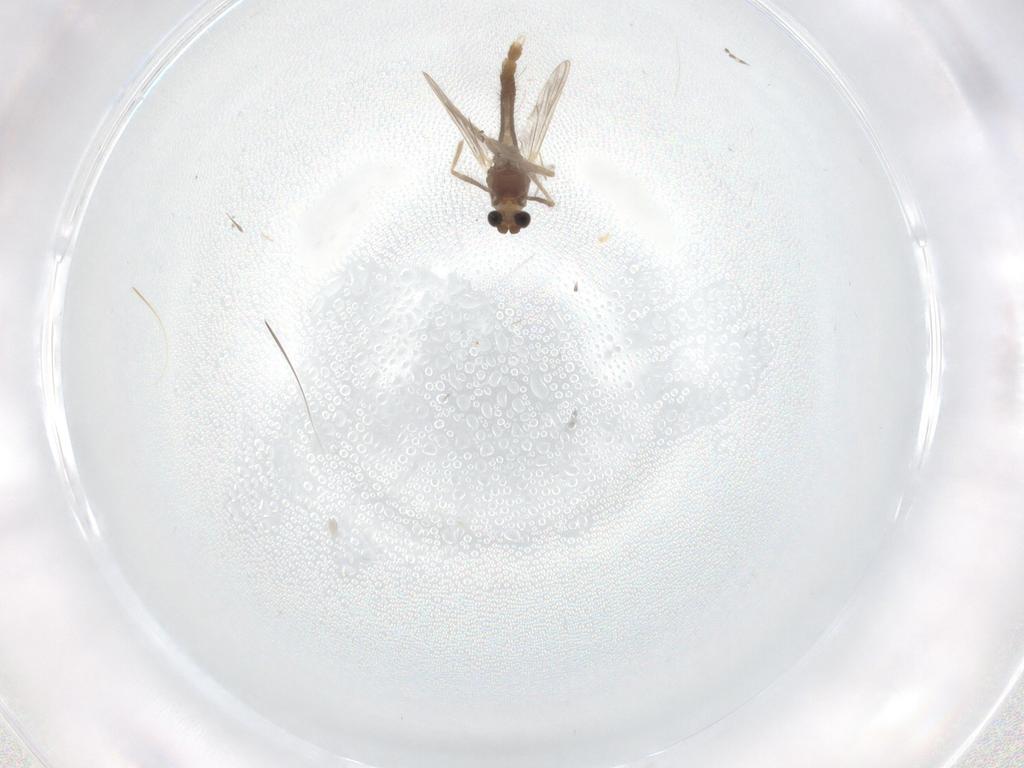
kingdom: Animalia
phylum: Arthropoda
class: Insecta
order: Diptera
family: Chironomidae
